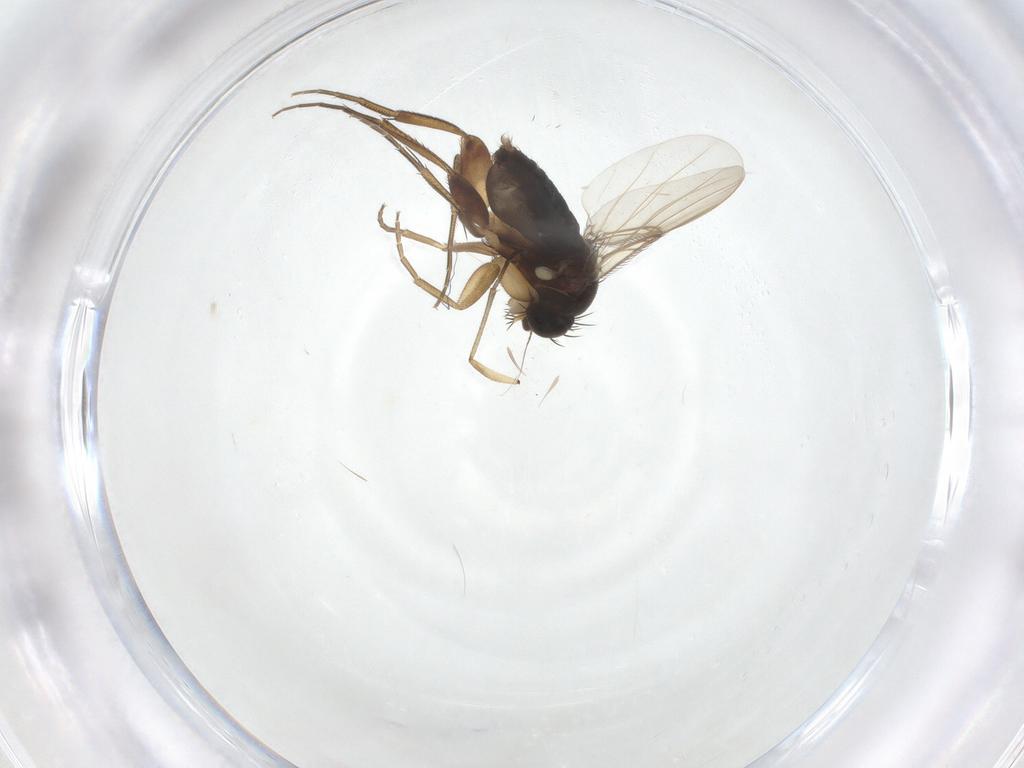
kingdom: Animalia
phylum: Arthropoda
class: Insecta
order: Diptera
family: Phoridae
